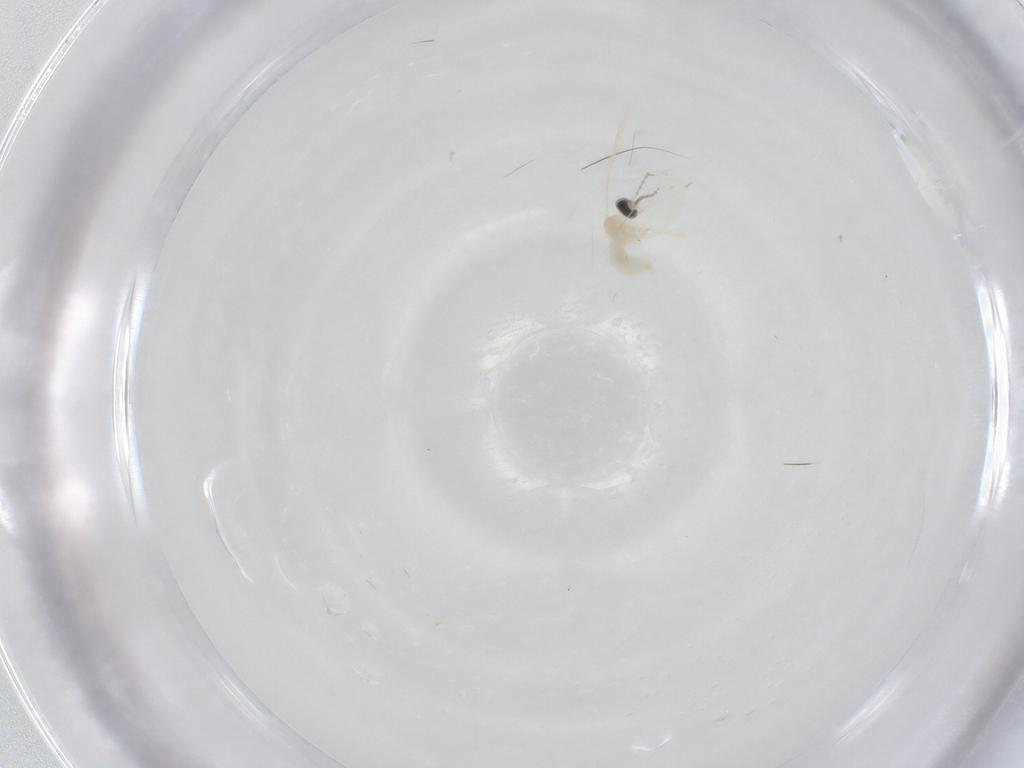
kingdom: Animalia
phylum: Arthropoda
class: Insecta
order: Diptera
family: Cecidomyiidae
